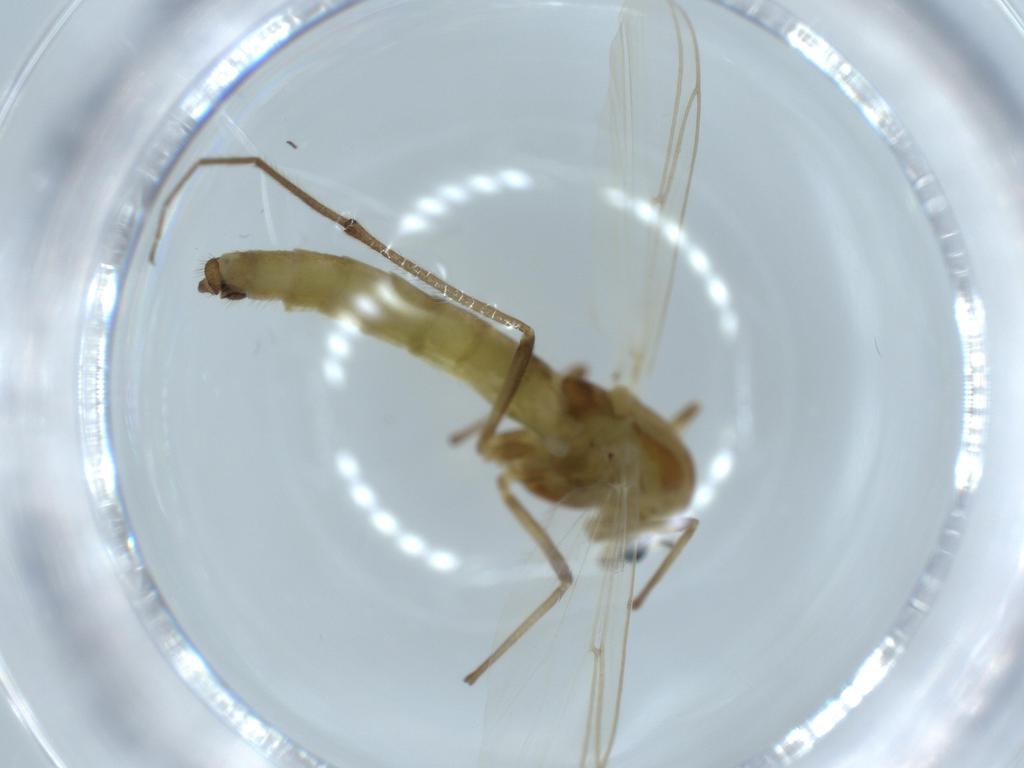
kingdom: Animalia
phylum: Arthropoda
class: Insecta
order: Diptera
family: Chironomidae
